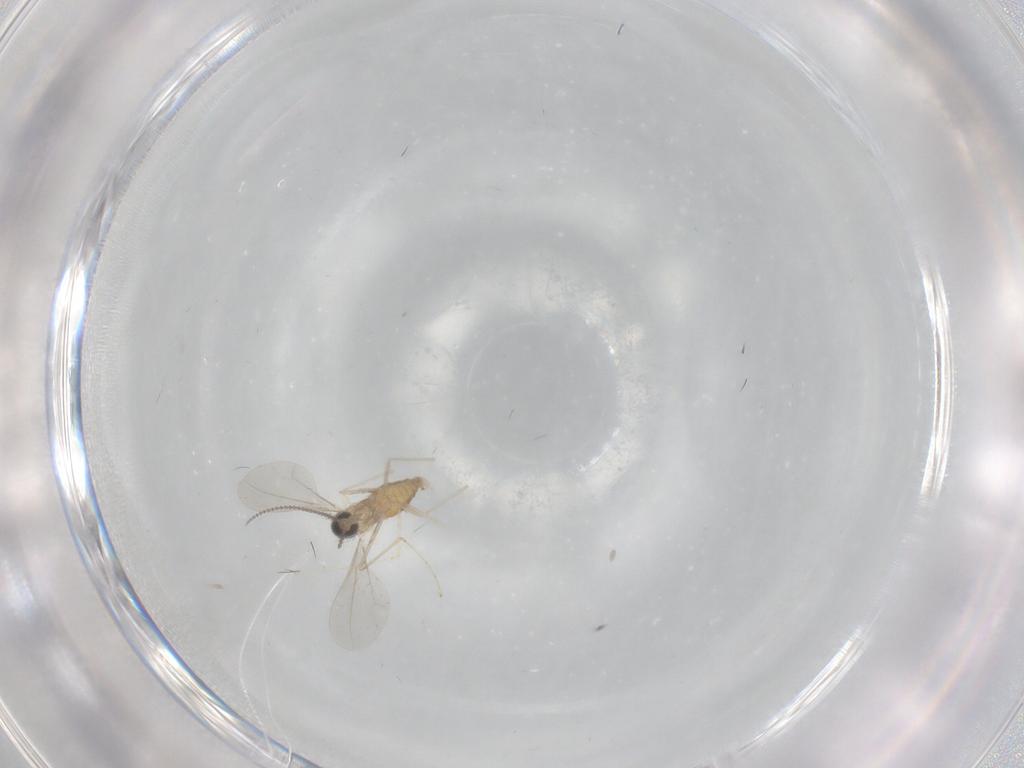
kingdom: Animalia
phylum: Arthropoda
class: Insecta
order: Diptera
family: Cecidomyiidae
